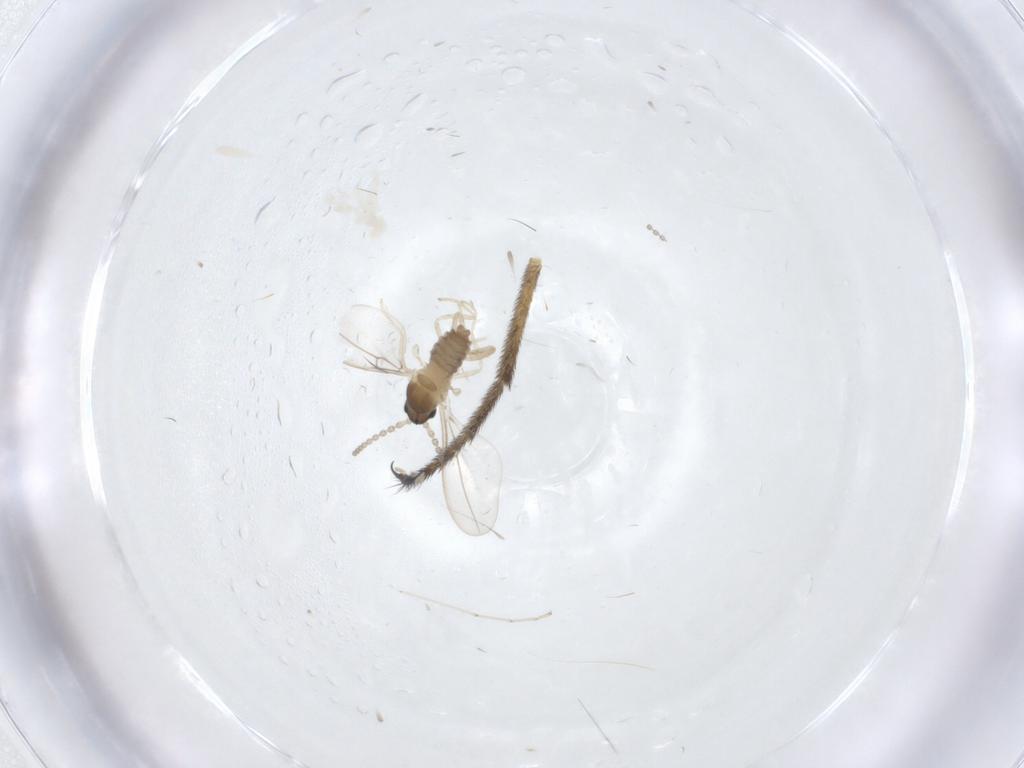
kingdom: Animalia
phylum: Arthropoda
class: Insecta
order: Diptera
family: Cecidomyiidae
